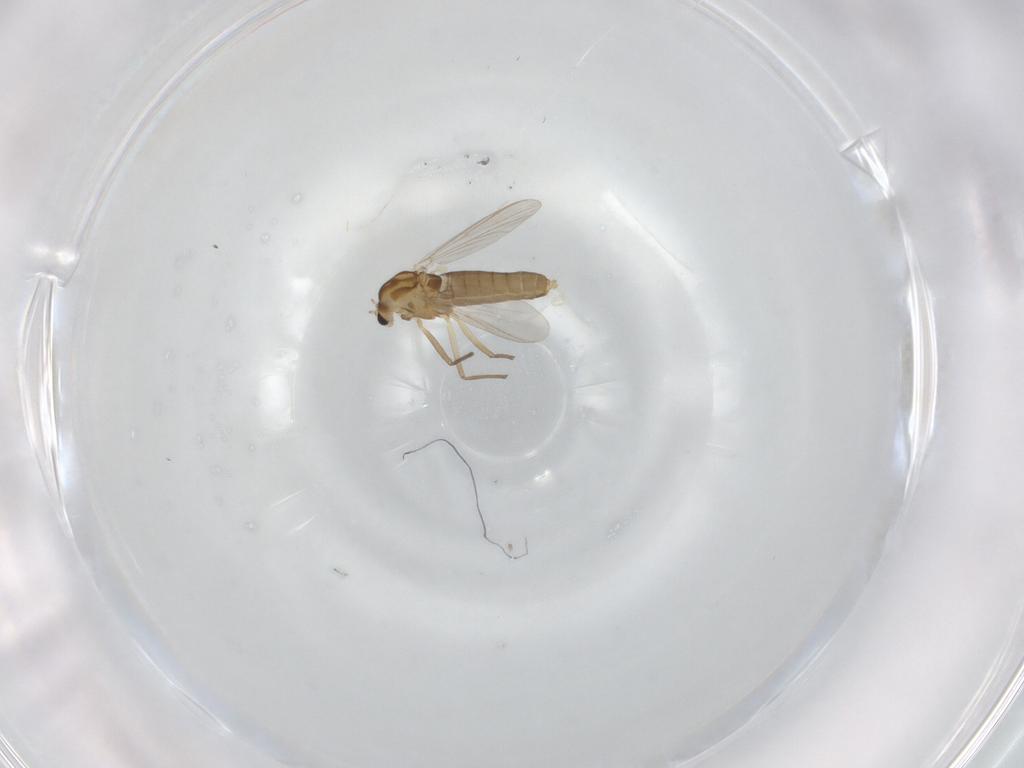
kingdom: Animalia
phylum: Arthropoda
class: Insecta
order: Diptera
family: Chironomidae
